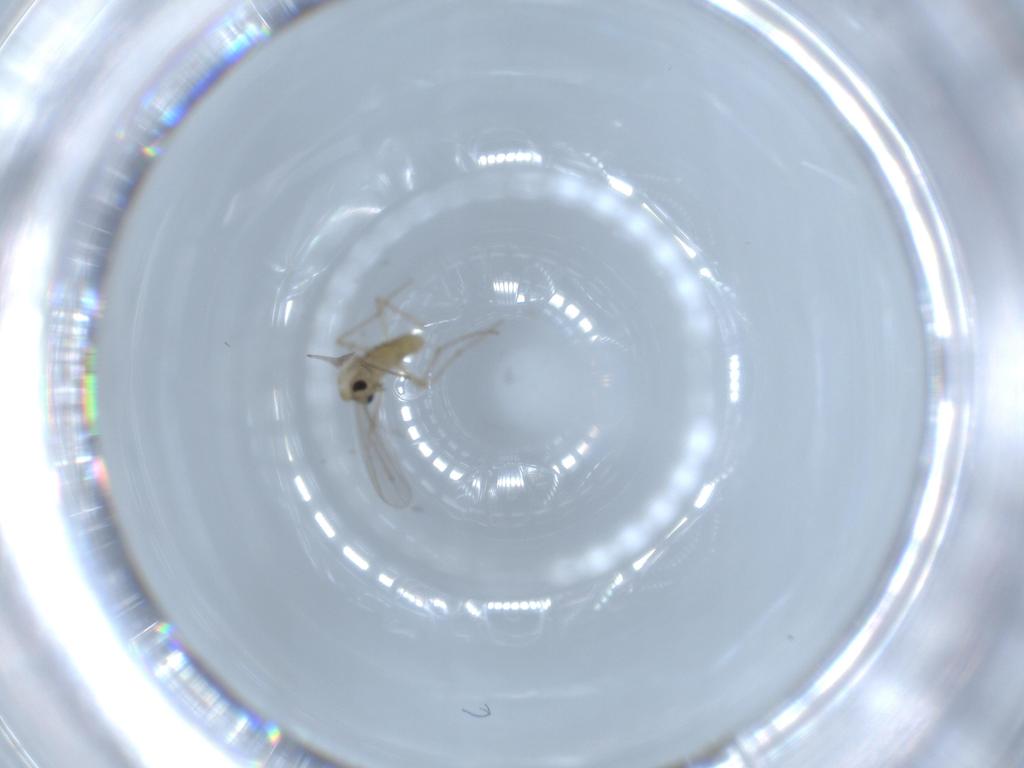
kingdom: Animalia
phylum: Arthropoda
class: Insecta
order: Diptera
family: Chironomidae
